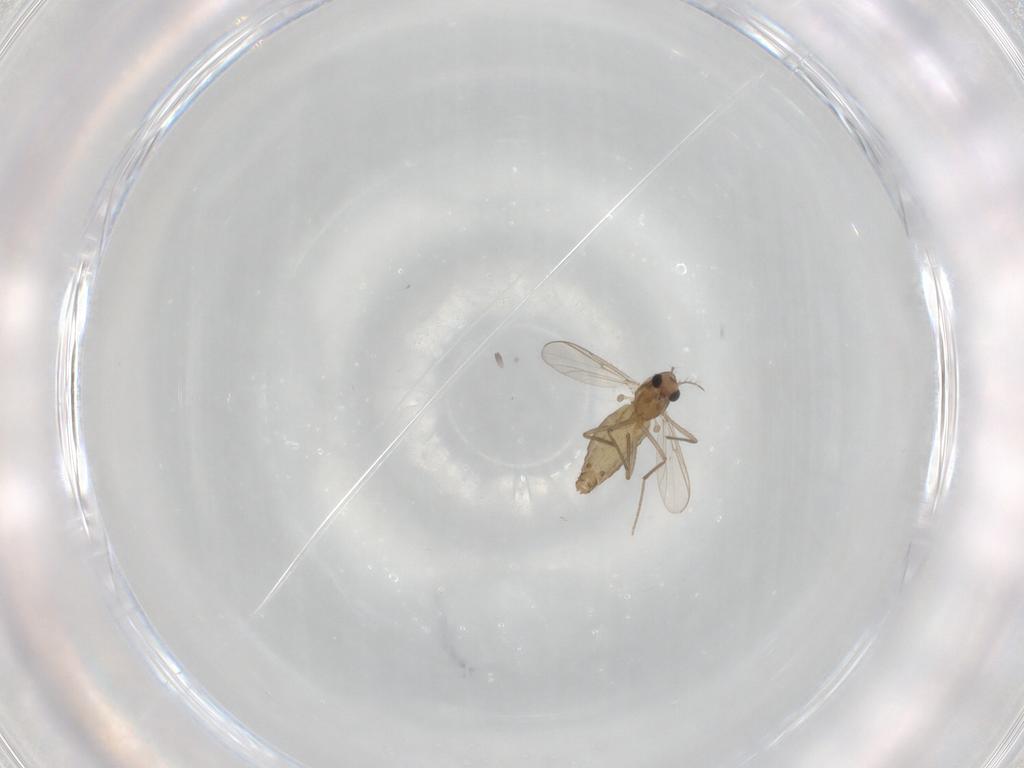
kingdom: Animalia
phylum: Arthropoda
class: Insecta
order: Diptera
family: Chironomidae
